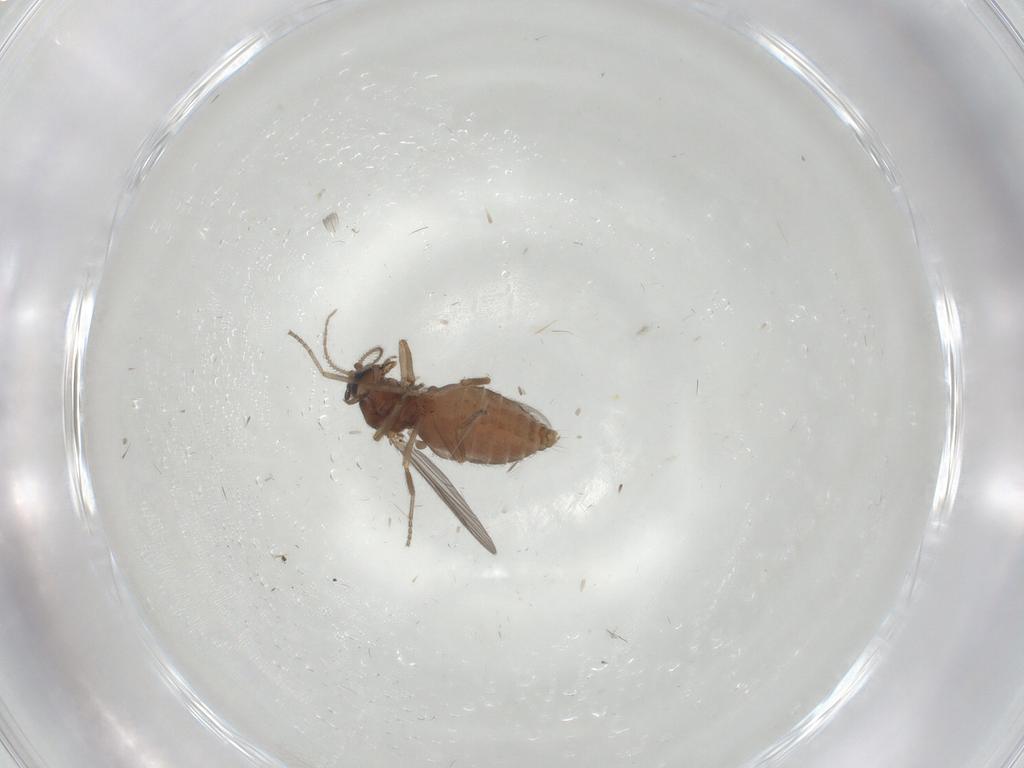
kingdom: Animalia
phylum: Arthropoda
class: Insecta
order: Diptera
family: Ceratopogonidae
